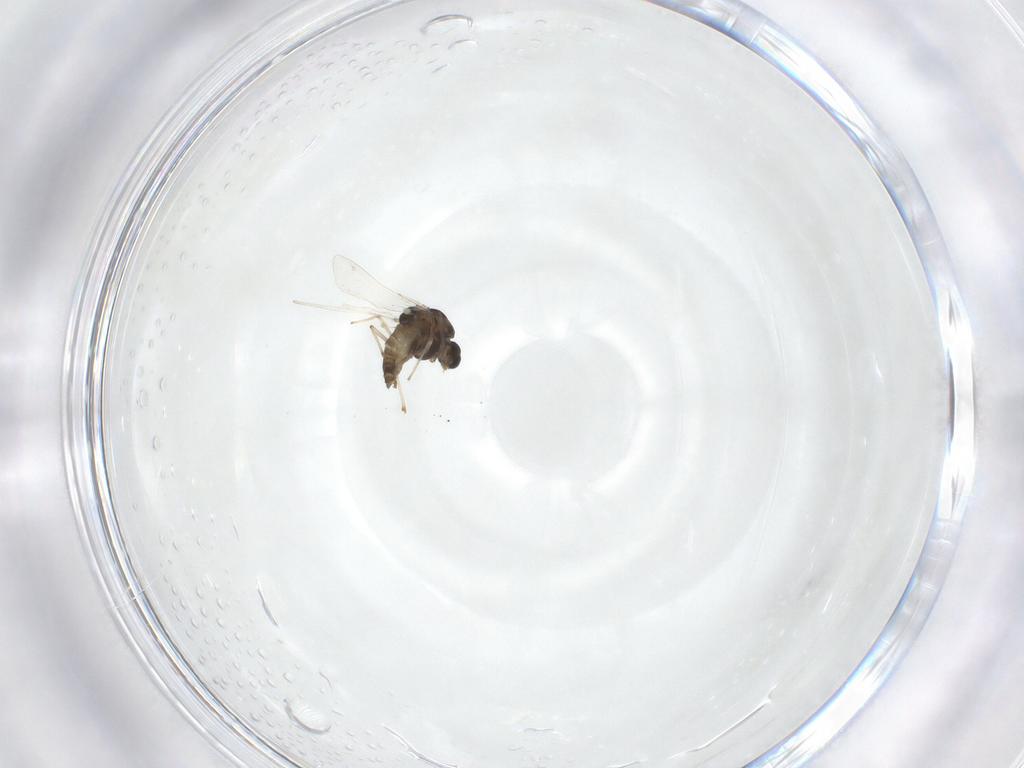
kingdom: Animalia
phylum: Arthropoda
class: Insecta
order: Diptera
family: Chironomidae
